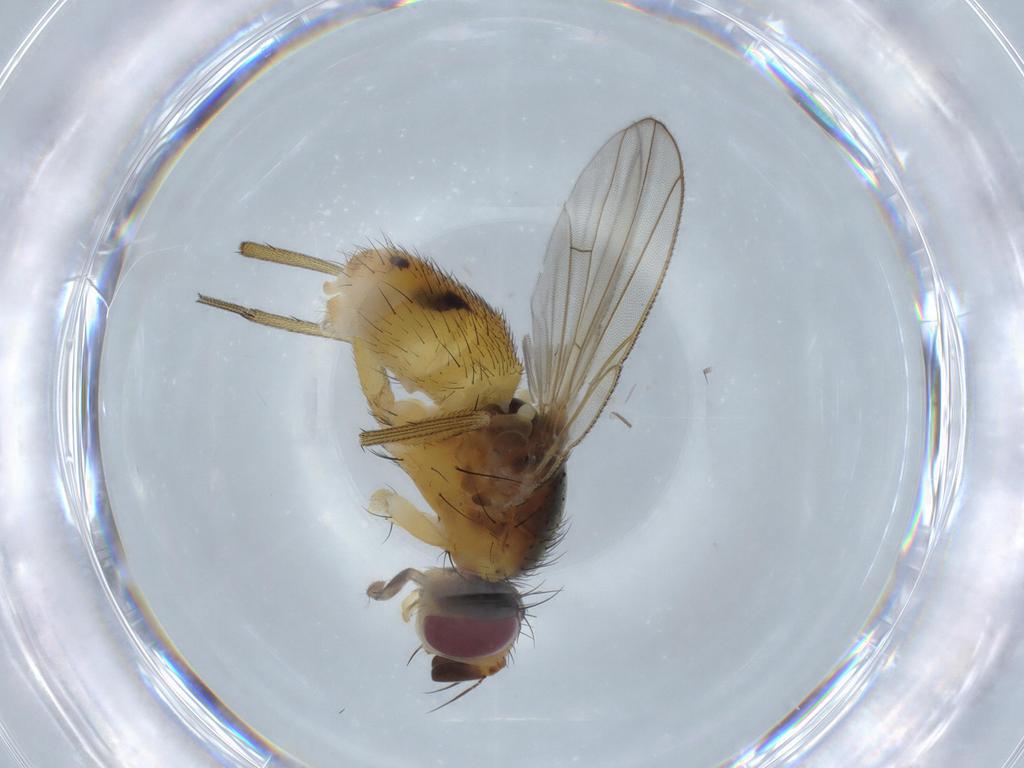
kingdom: Animalia
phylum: Arthropoda
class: Insecta
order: Diptera
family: Muscidae
